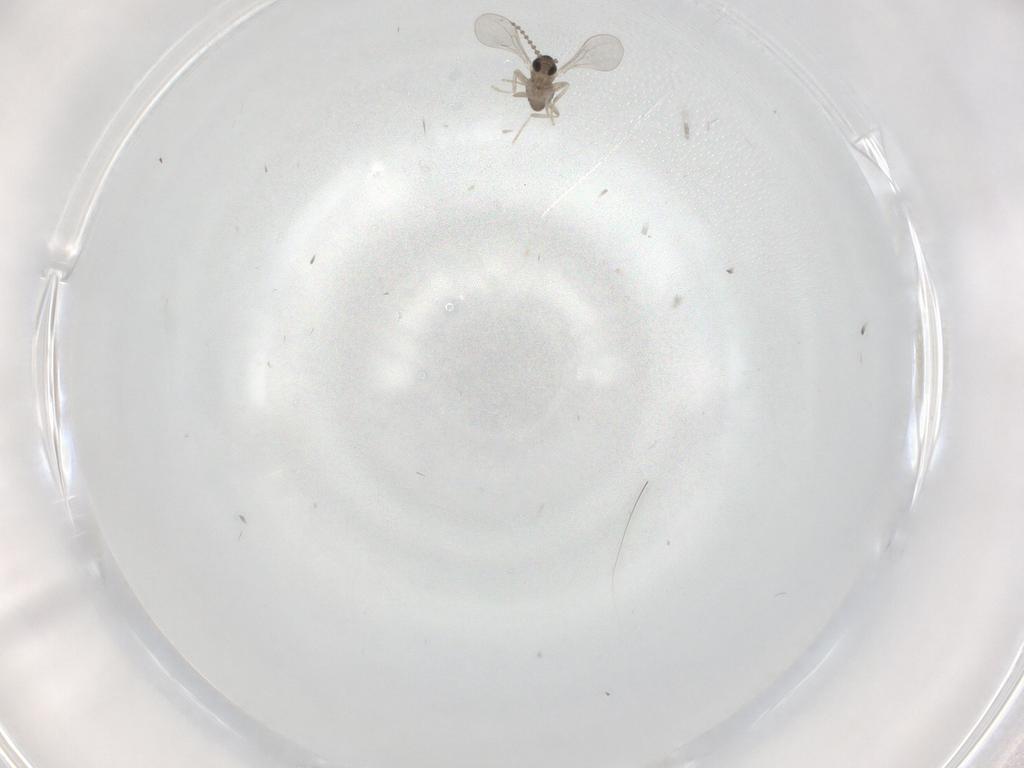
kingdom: Animalia
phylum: Arthropoda
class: Insecta
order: Diptera
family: Cecidomyiidae
